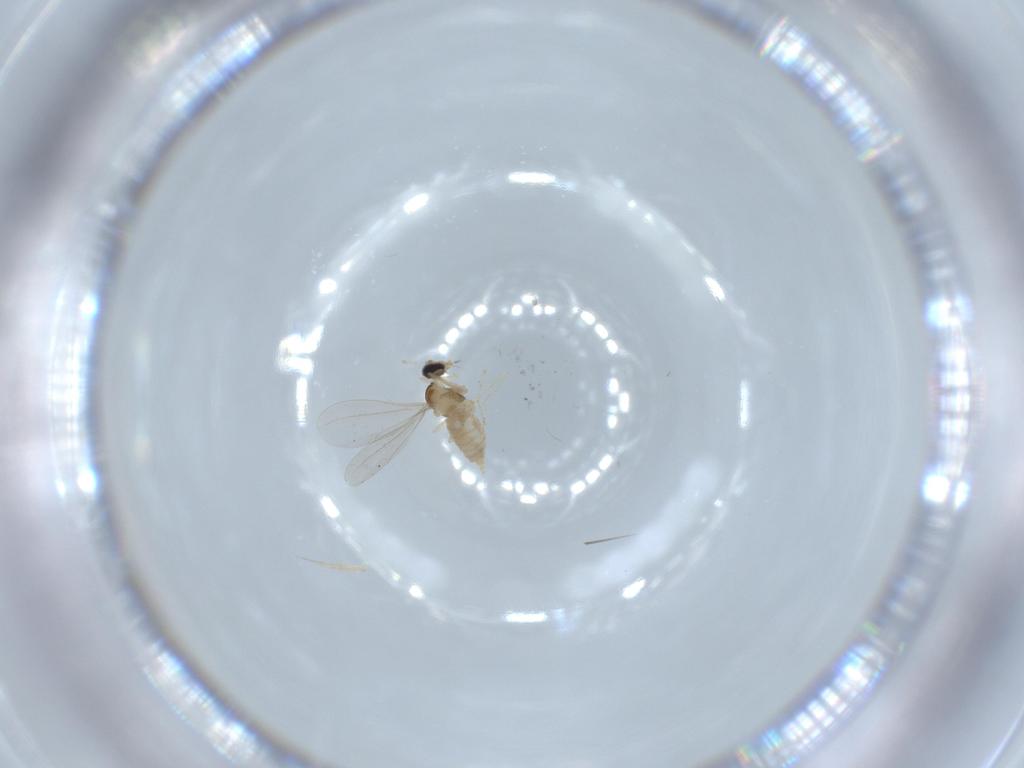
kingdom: Animalia
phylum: Arthropoda
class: Insecta
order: Diptera
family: Cecidomyiidae
